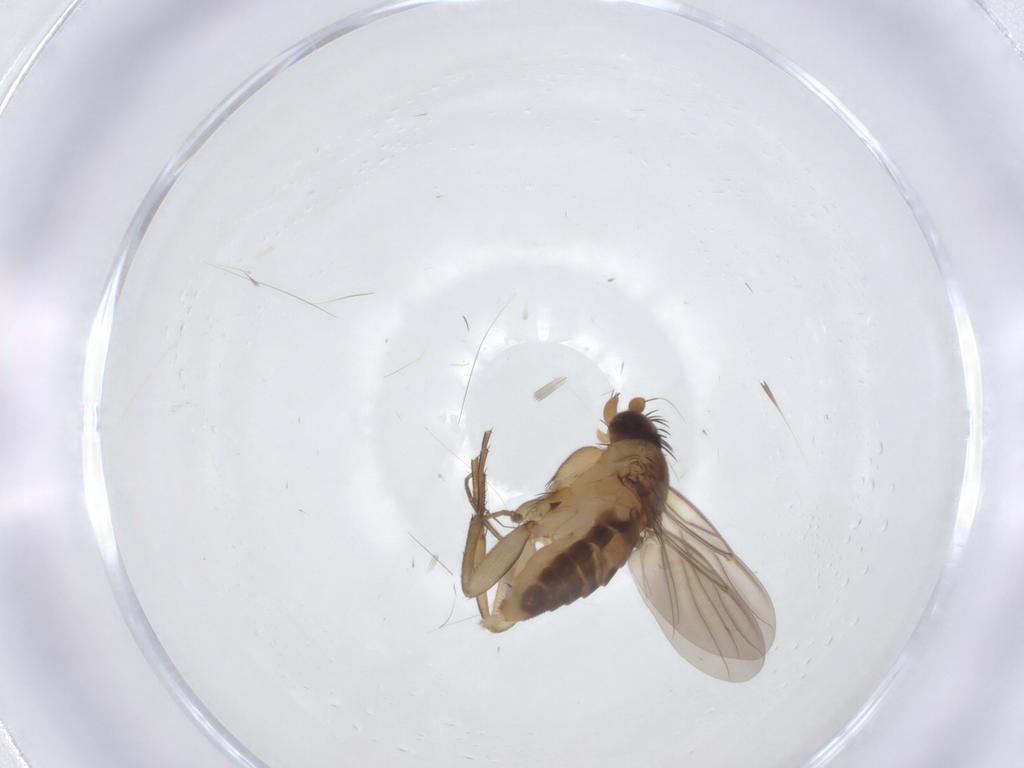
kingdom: Animalia
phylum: Arthropoda
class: Insecta
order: Diptera
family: Phoridae
